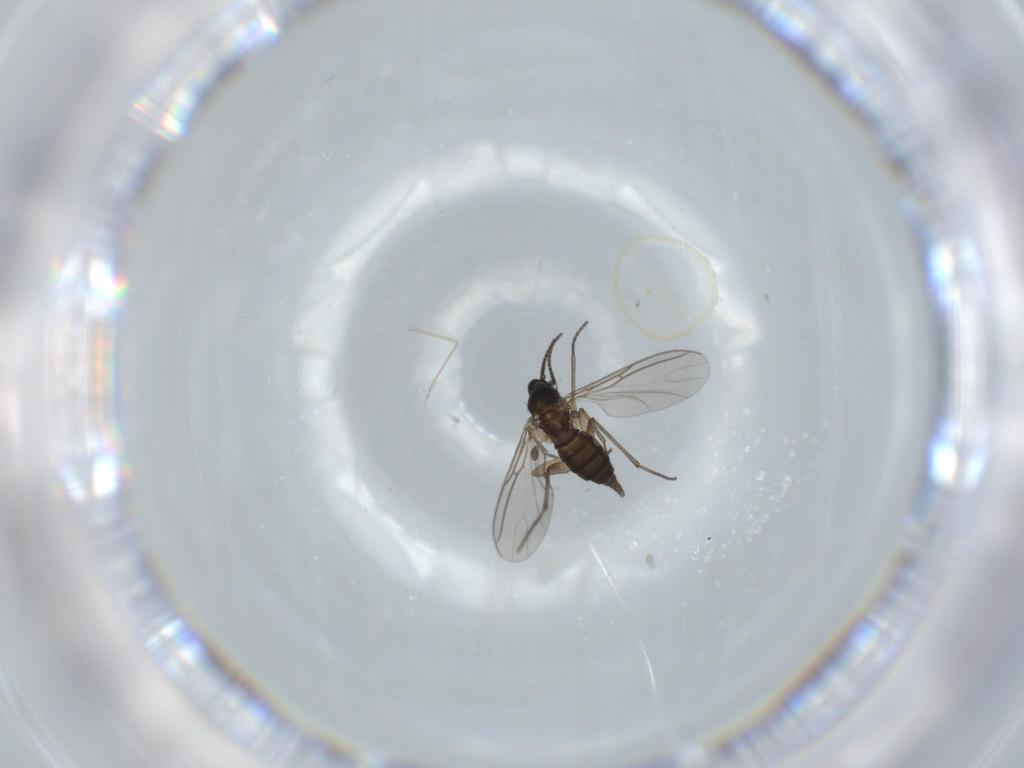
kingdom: Animalia
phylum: Arthropoda
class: Insecta
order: Diptera
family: Sciaridae
